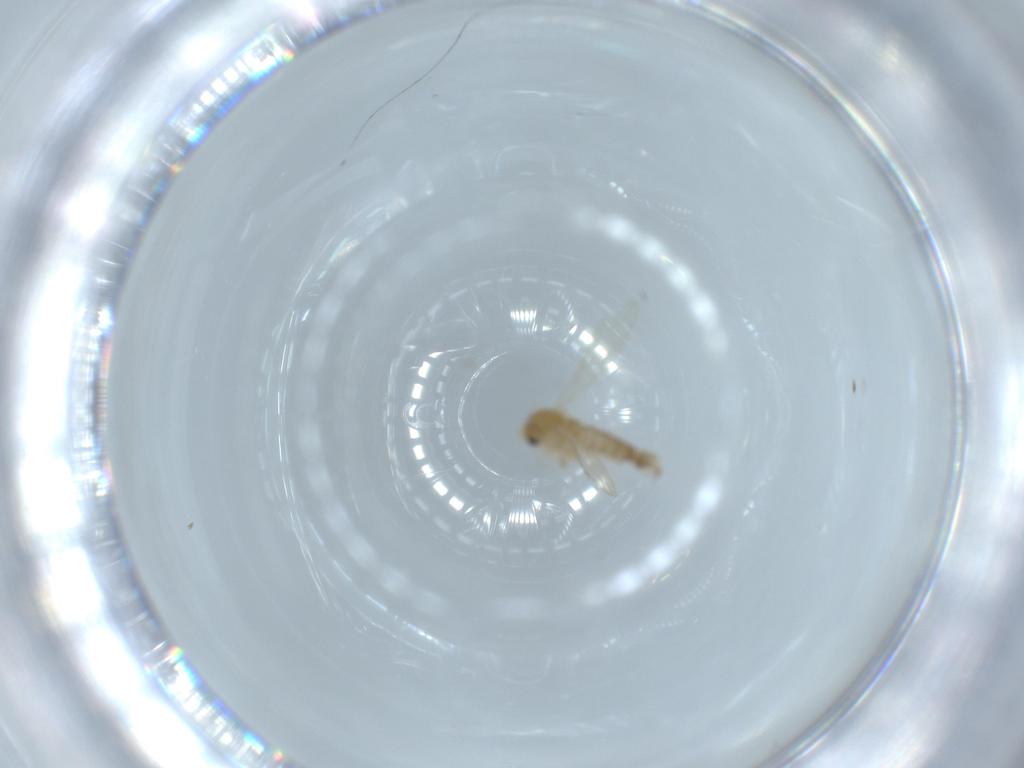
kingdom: Animalia
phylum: Arthropoda
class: Insecta
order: Diptera
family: Psychodidae
